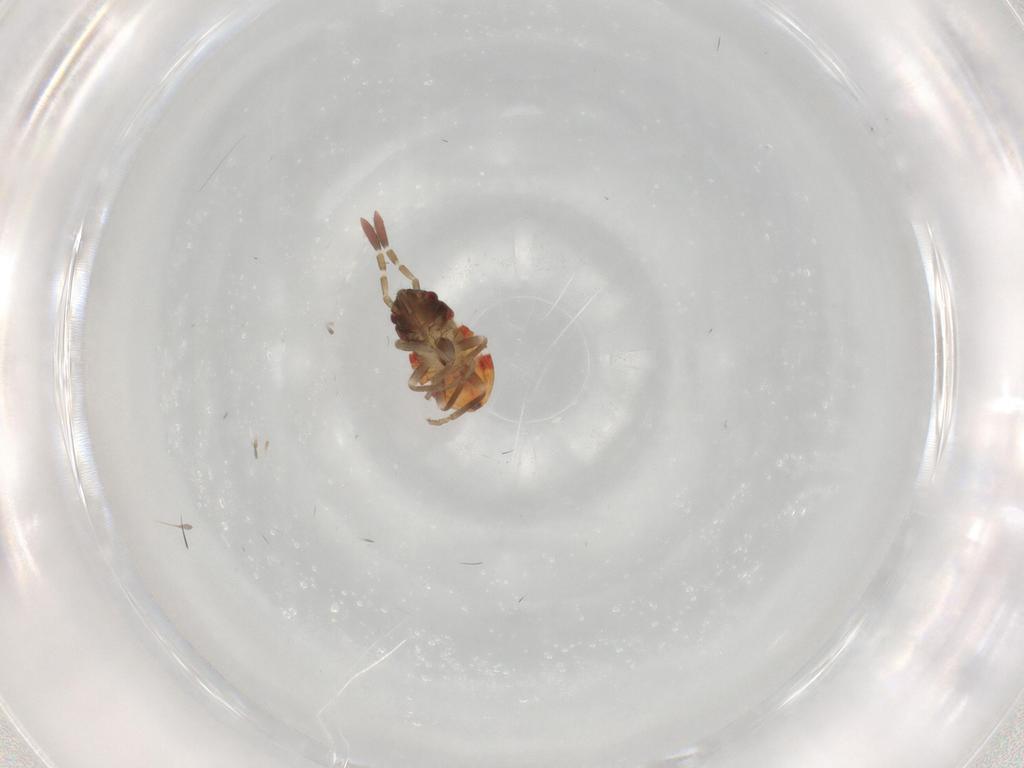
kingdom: Animalia
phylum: Arthropoda
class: Insecta
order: Hemiptera
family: Rhyparochromidae
